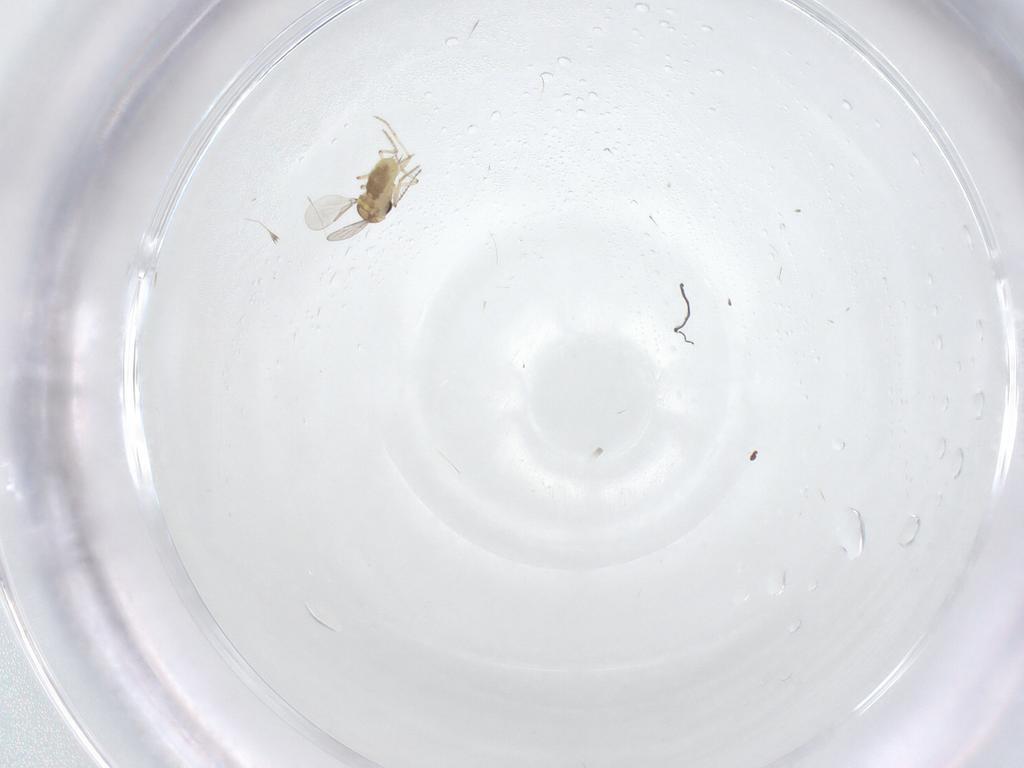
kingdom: Animalia
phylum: Arthropoda
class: Insecta
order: Diptera
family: Ceratopogonidae
